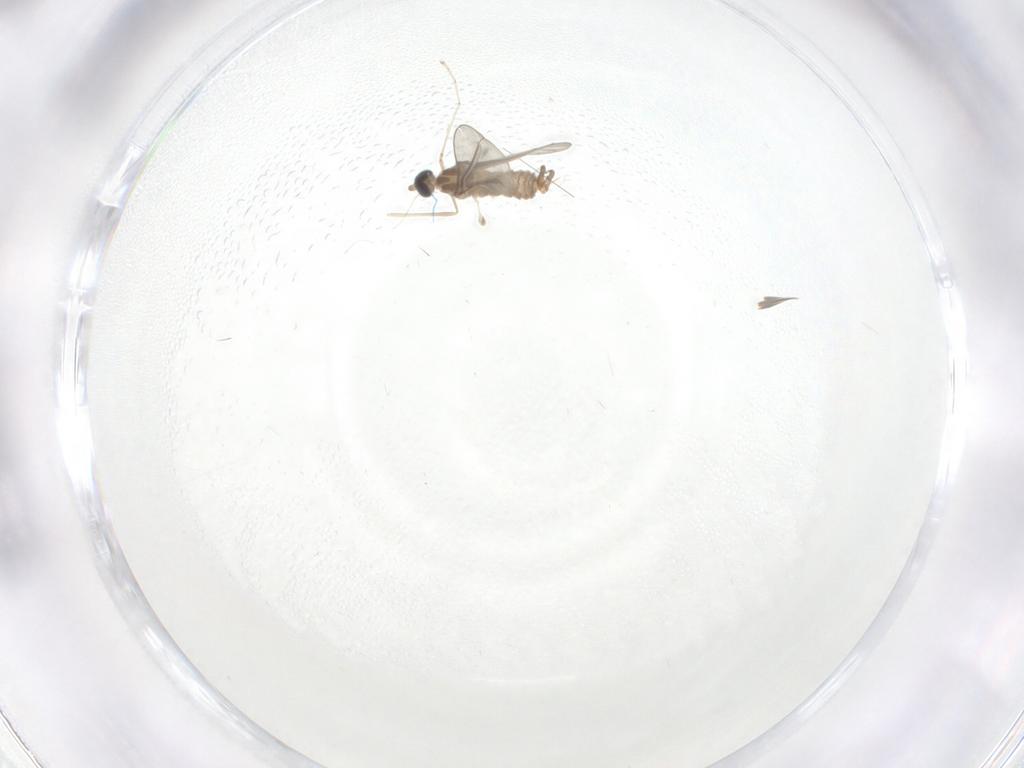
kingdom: Animalia
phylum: Arthropoda
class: Insecta
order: Diptera
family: Cecidomyiidae
